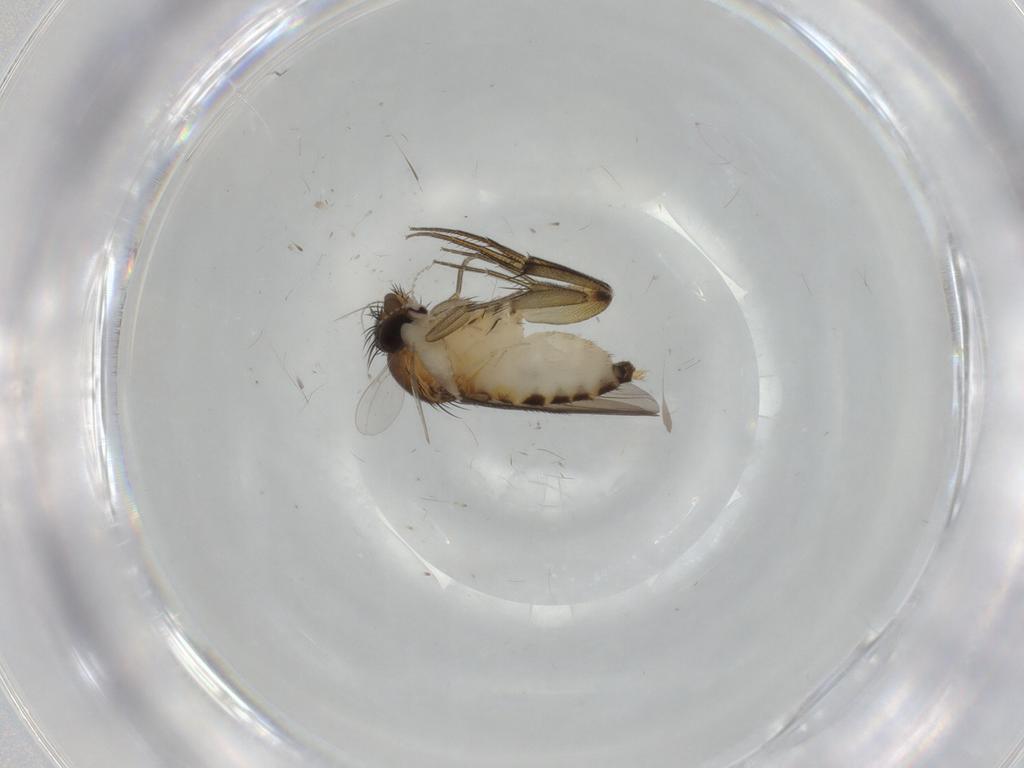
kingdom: Animalia
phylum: Arthropoda
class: Insecta
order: Diptera
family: Phoridae
